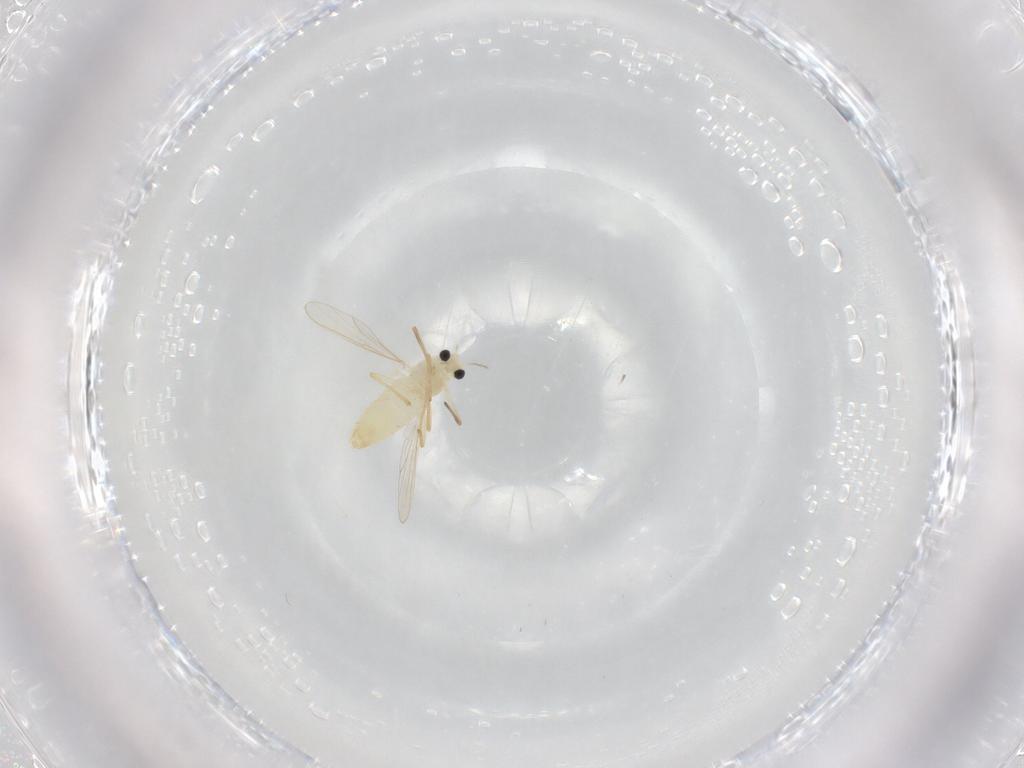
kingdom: Animalia
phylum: Arthropoda
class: Insecta
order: Diptera
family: Chironomidae
